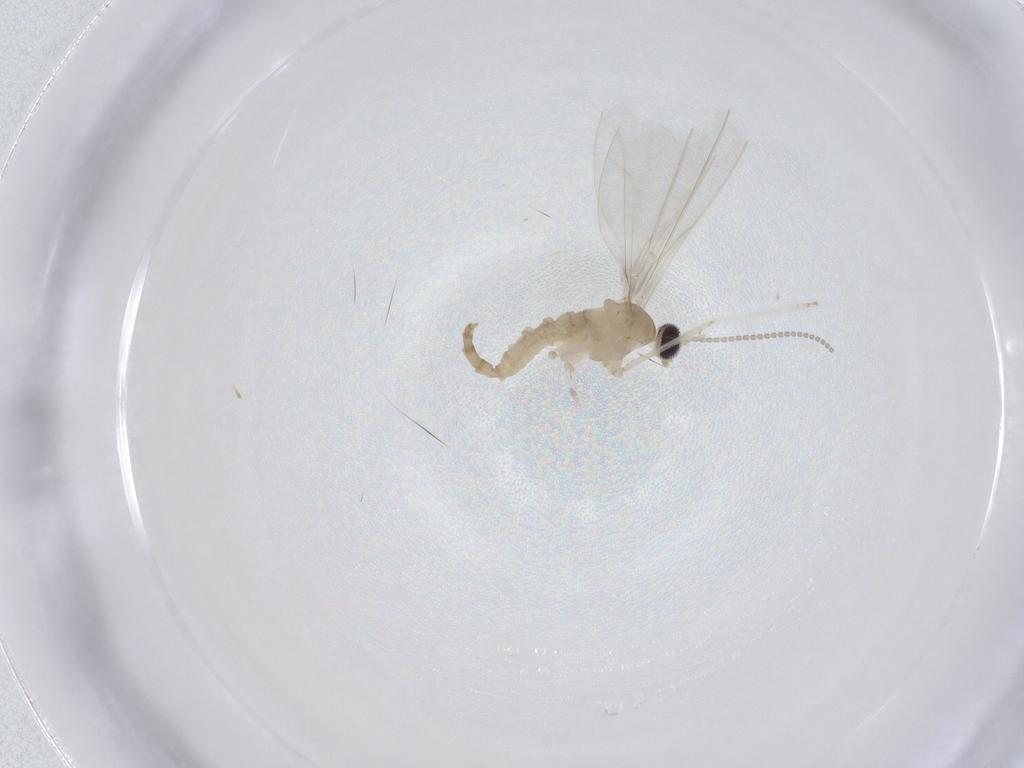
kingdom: Animalia
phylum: Arthropoda
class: Insecta
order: Diptera
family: Cecidomyiidae
